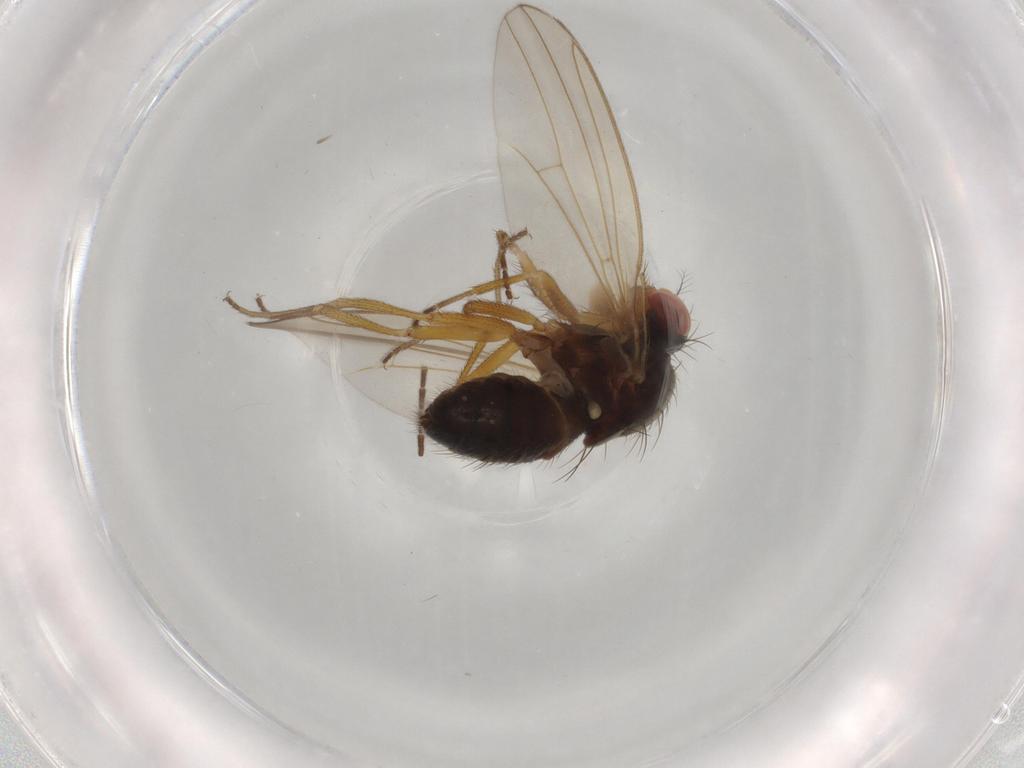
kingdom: Animalia
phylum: Arthropoda
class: Insecta
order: Diptera
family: Drosophilidae
